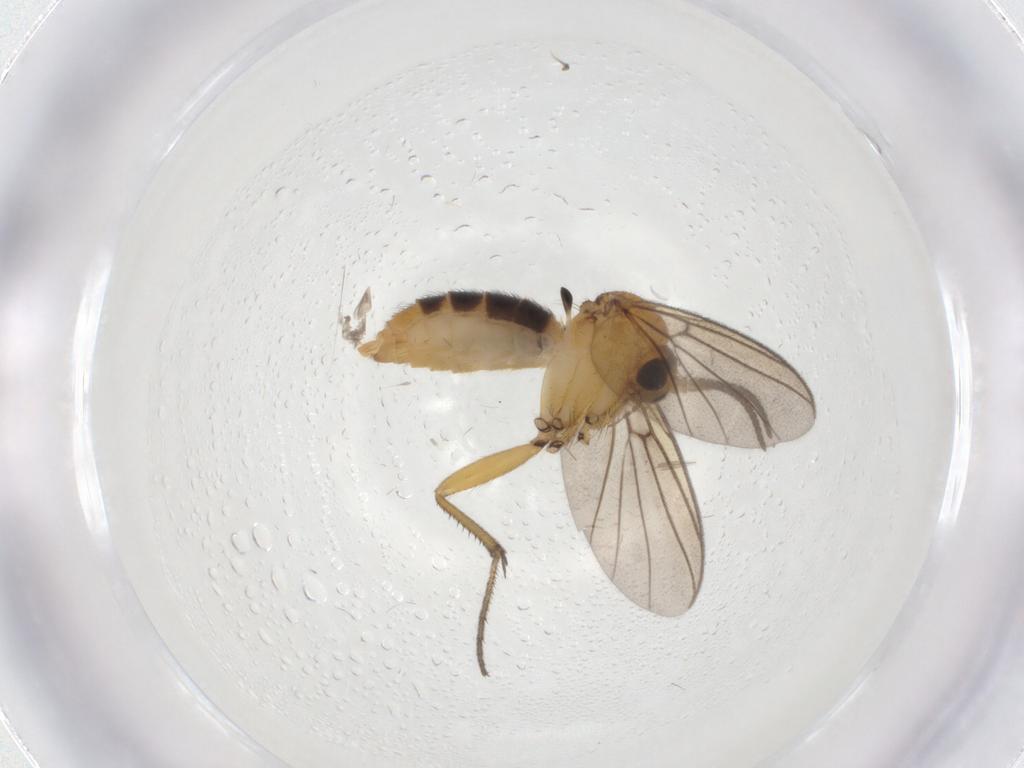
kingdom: Animalia
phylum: Arthropoda
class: Insecta
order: Diptera
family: Mycetophilidae
